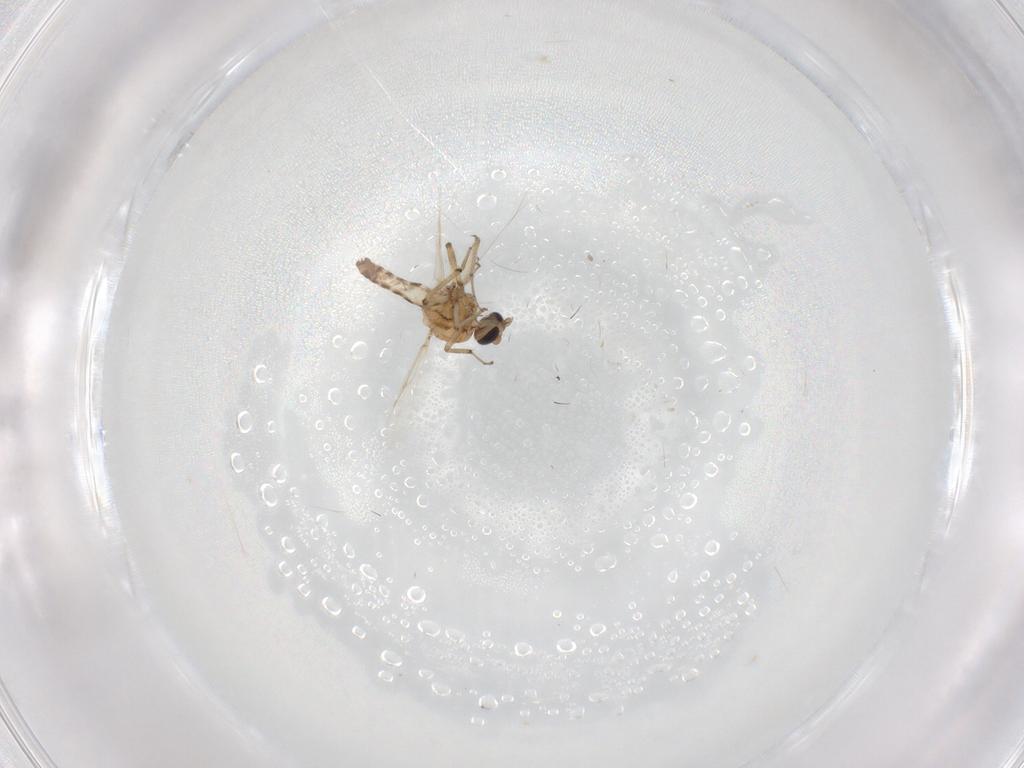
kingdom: Animalia
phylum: Arthropoda
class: Insecta
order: Diptera
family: Ceratopogonidae
